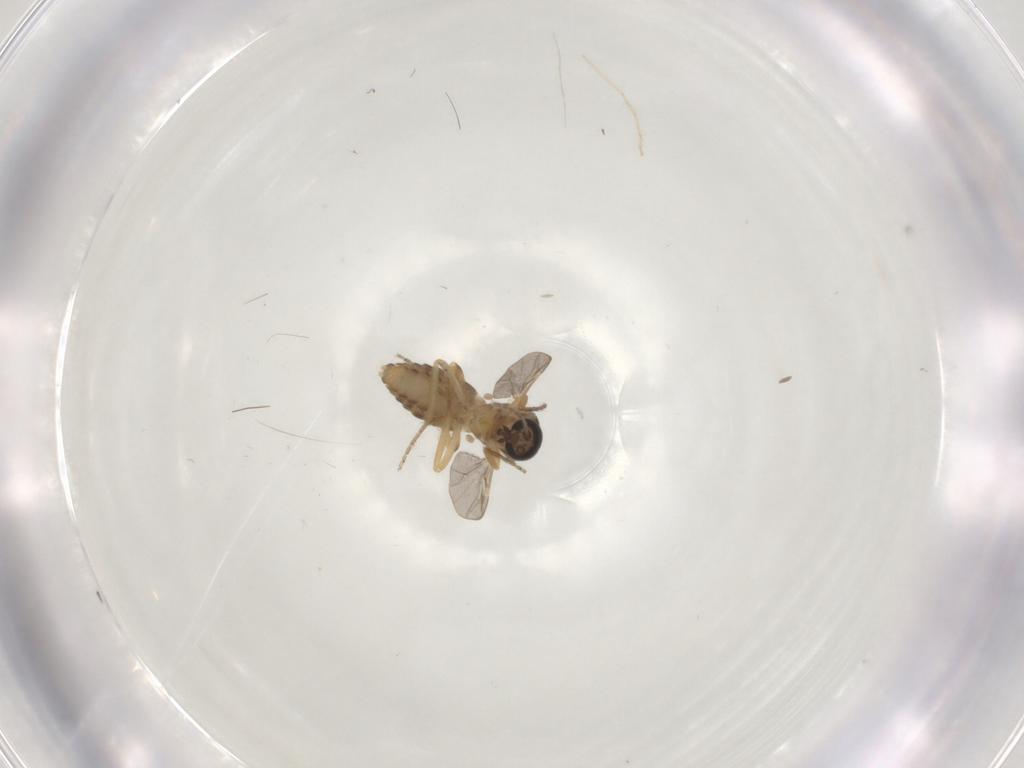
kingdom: Animalia
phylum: Arthropoda
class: Insecta
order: Diptera
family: Ceratopogonidae
